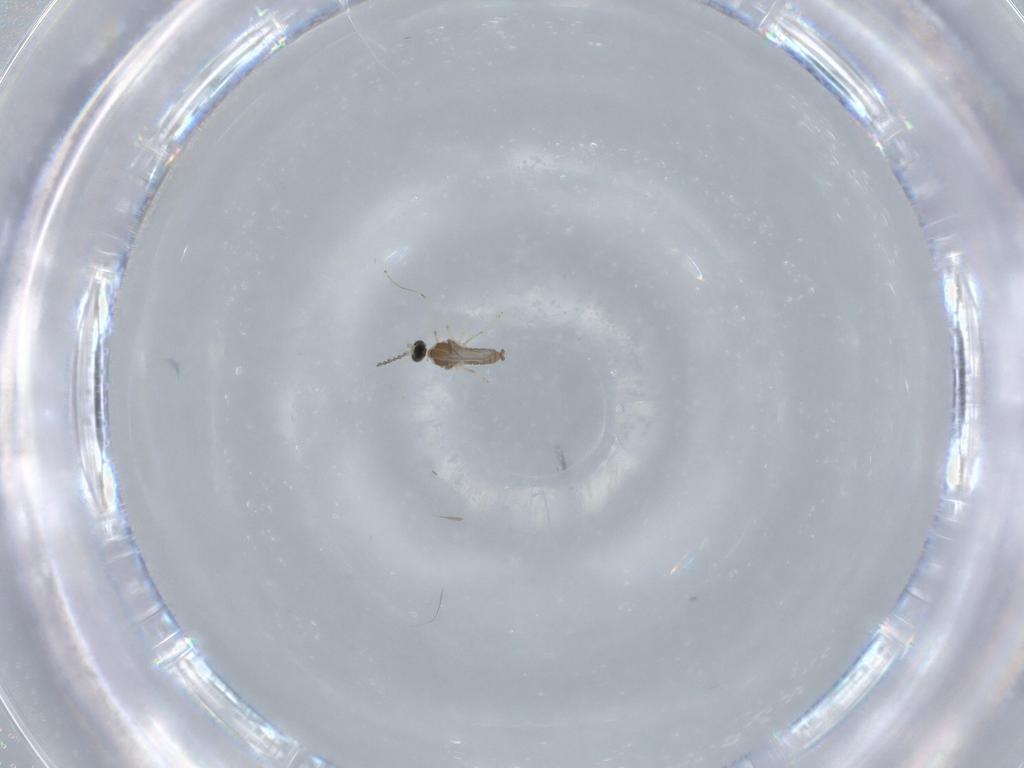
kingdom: Animalia
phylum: Arthropoda
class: Insecta
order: Diptera
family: Cecidomyiidae
